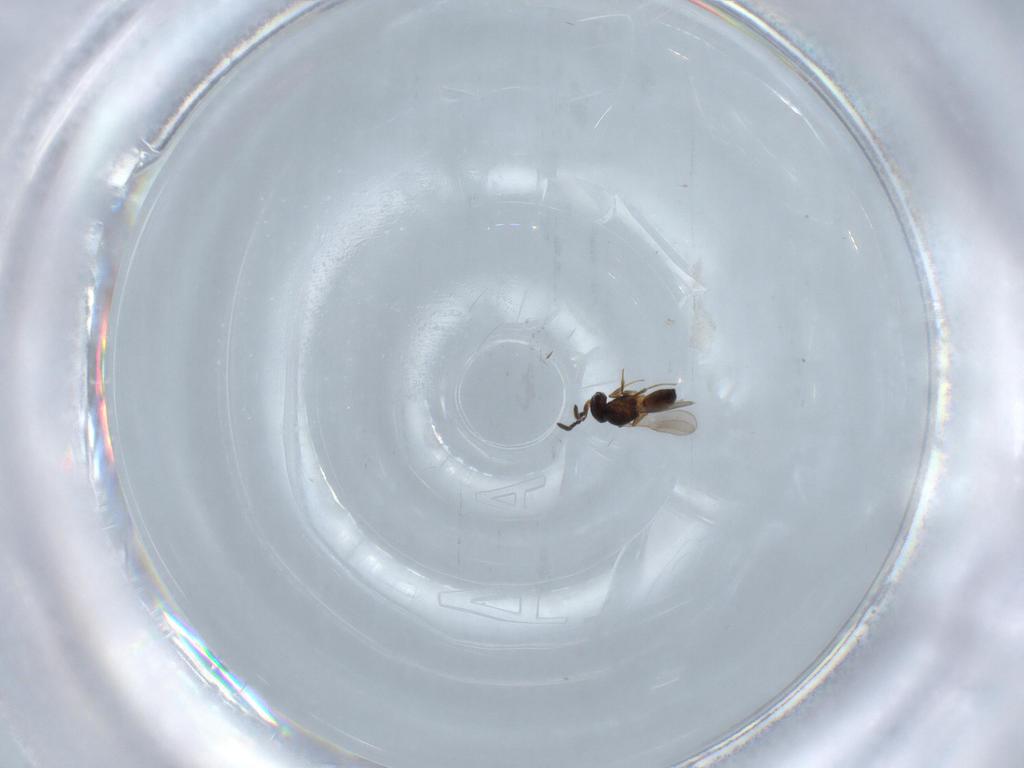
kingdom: Animalia
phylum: Arthropoda
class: Insecta
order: Hymenoptera
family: Scelionidae
